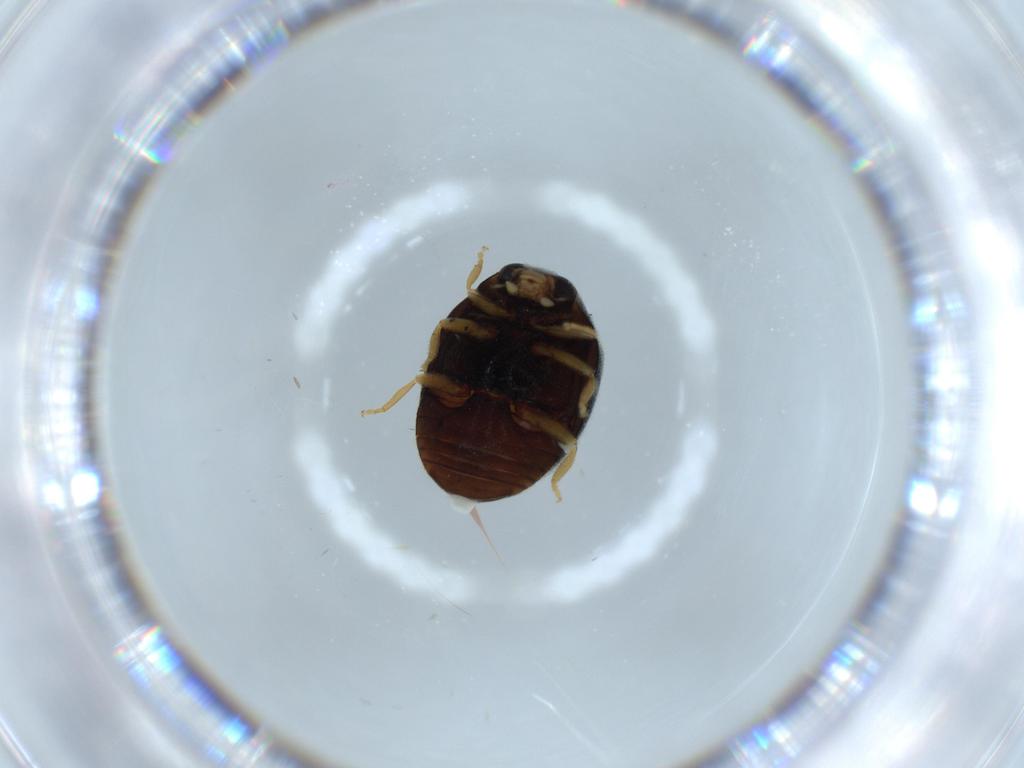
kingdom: Animalia
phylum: Arthropoda
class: Insecta
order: Coleoptera
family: Coccinellidae
